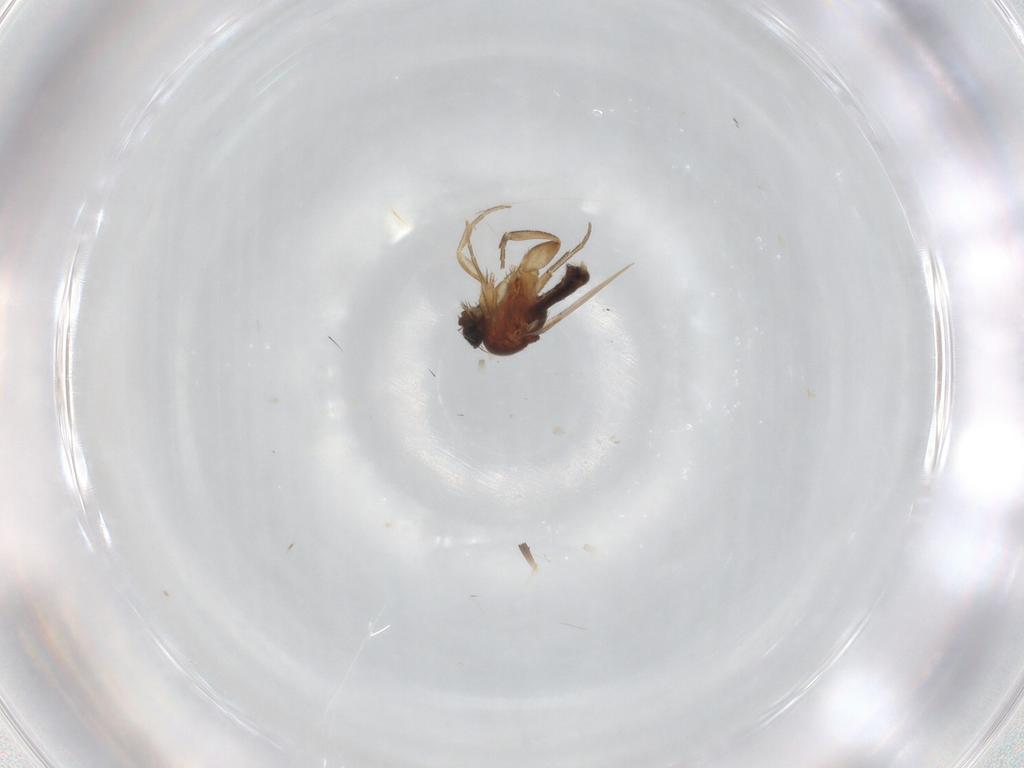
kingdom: Animalia
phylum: Arthropoda
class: Insecta
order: Diptera
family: Phoridae
